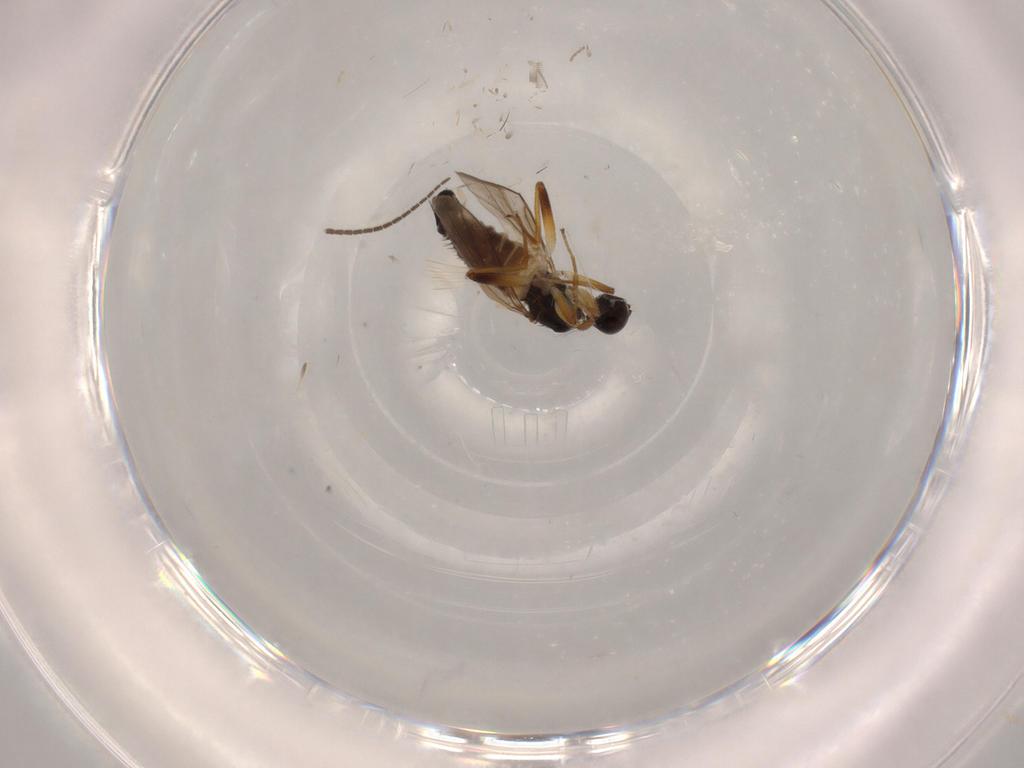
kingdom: Animalia
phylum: Arthropoda
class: Insecta
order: Diptera
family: Hybotidae
